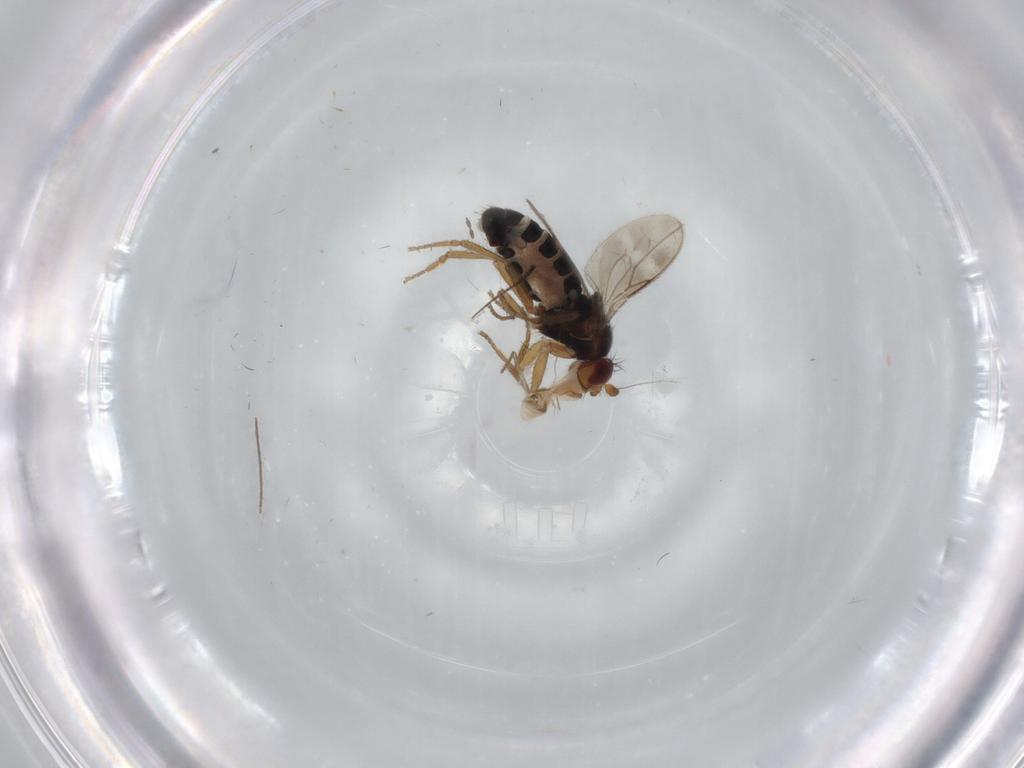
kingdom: Animalia
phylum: Arthropoda
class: Insecta
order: Diptera
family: Sphaeroceridae
